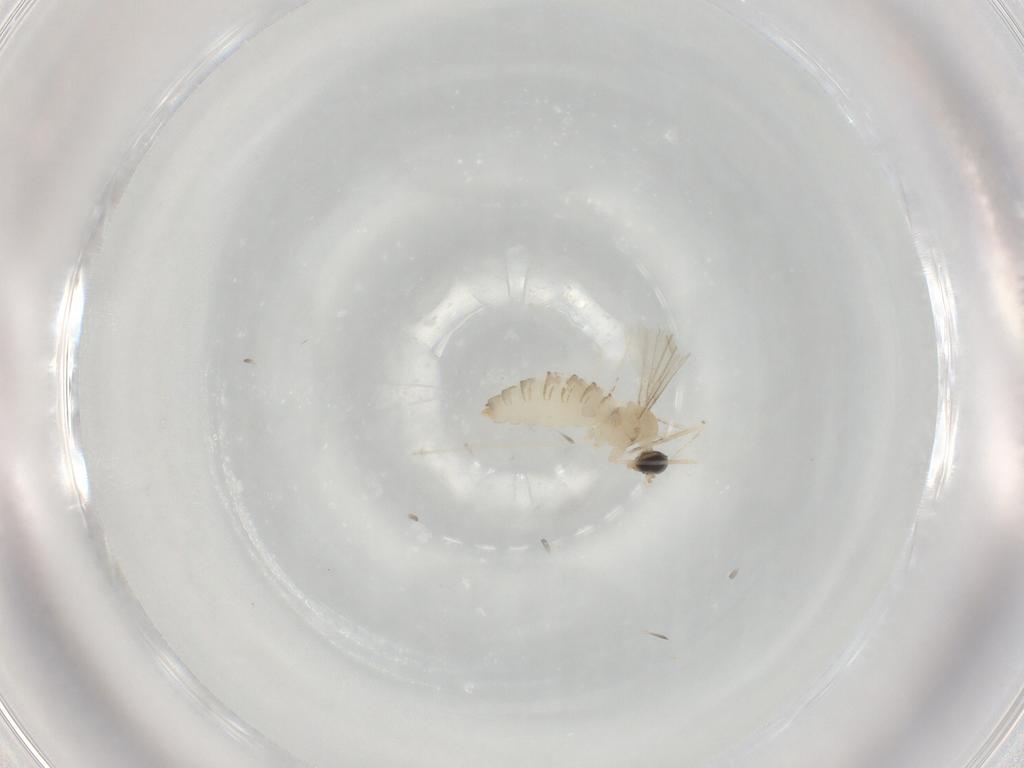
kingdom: Animalia
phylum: Arthropoda
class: Insecta
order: Diptera
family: Cecidomyiidae
